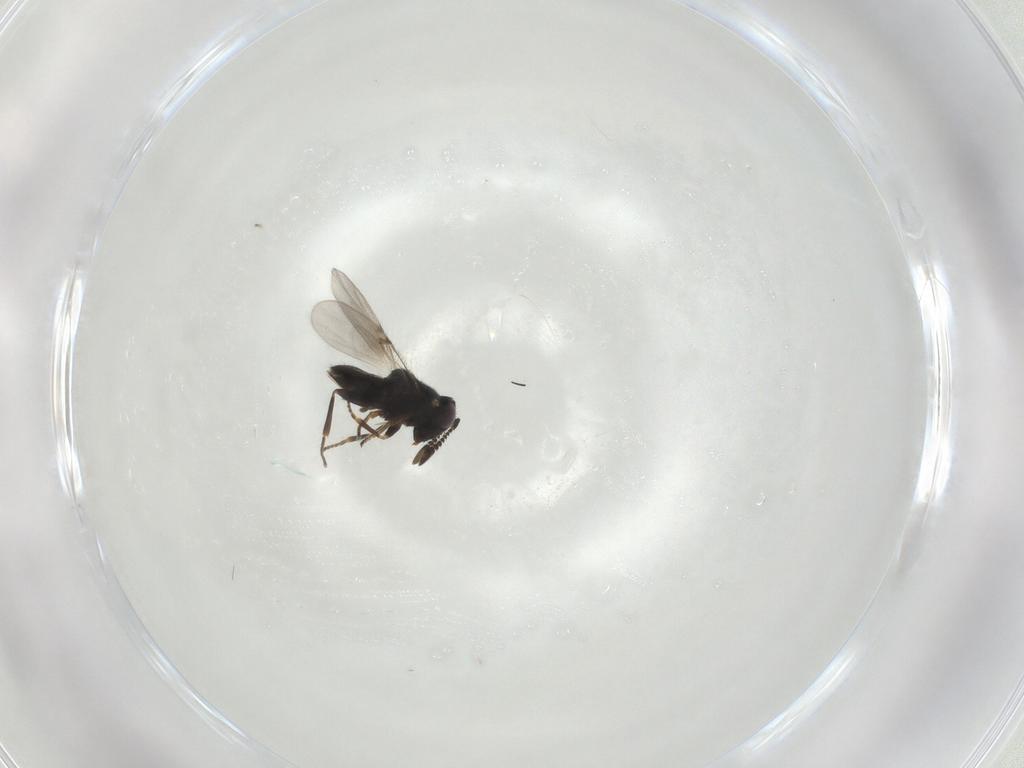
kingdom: Animalia
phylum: Arthropoda
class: Insecta
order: Hymenoptera
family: Encyrtidae
